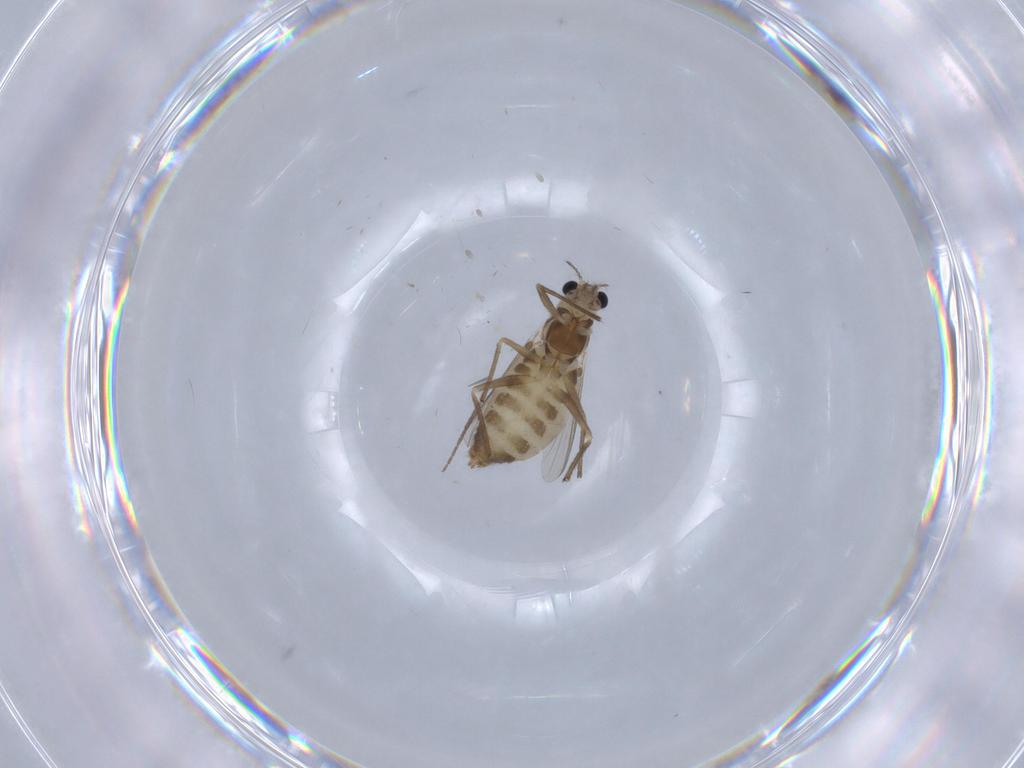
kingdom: Animalia
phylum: Arthropoda
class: Insecta
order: Diptera
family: Chironomidae
